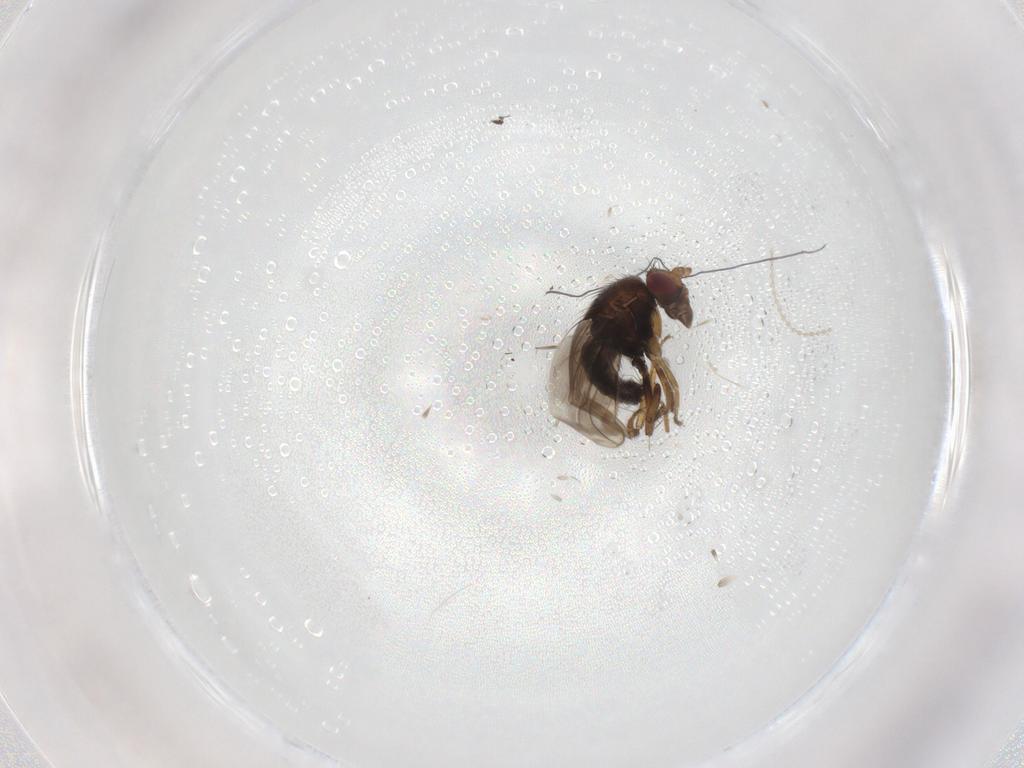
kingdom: Animalia
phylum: Arthropoda
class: Insecta
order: Diptera
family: Agromyzidae
